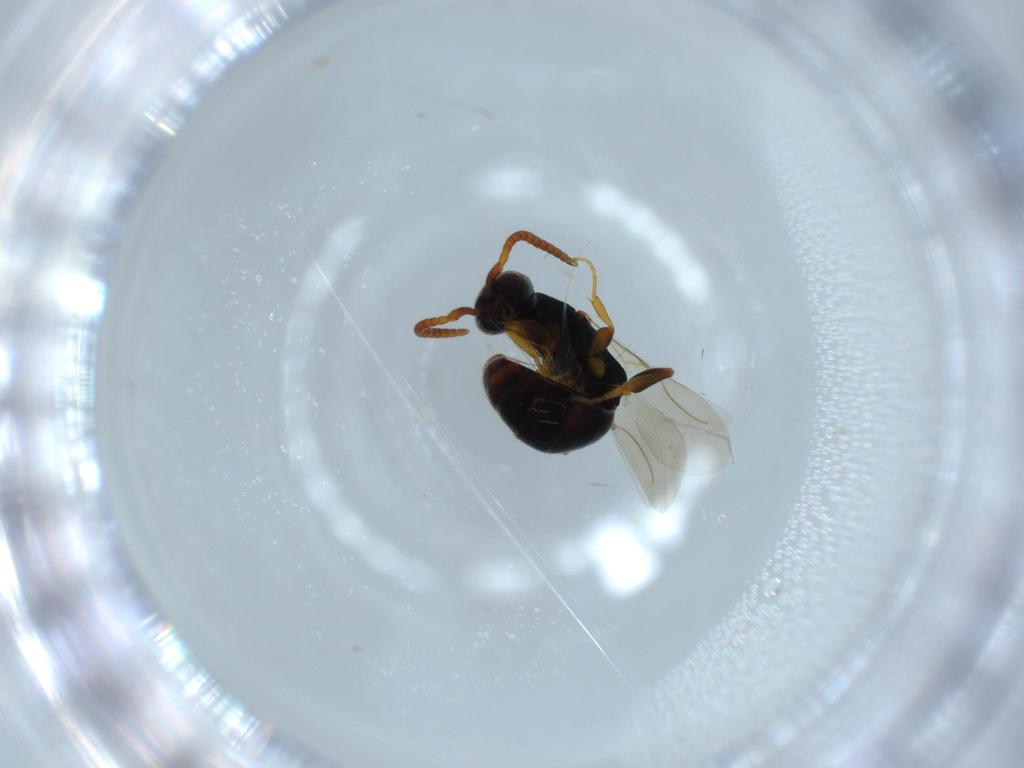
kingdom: Animalia
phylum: Arthropoda
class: Insecta
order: Hymenoptera
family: Bethylidae
